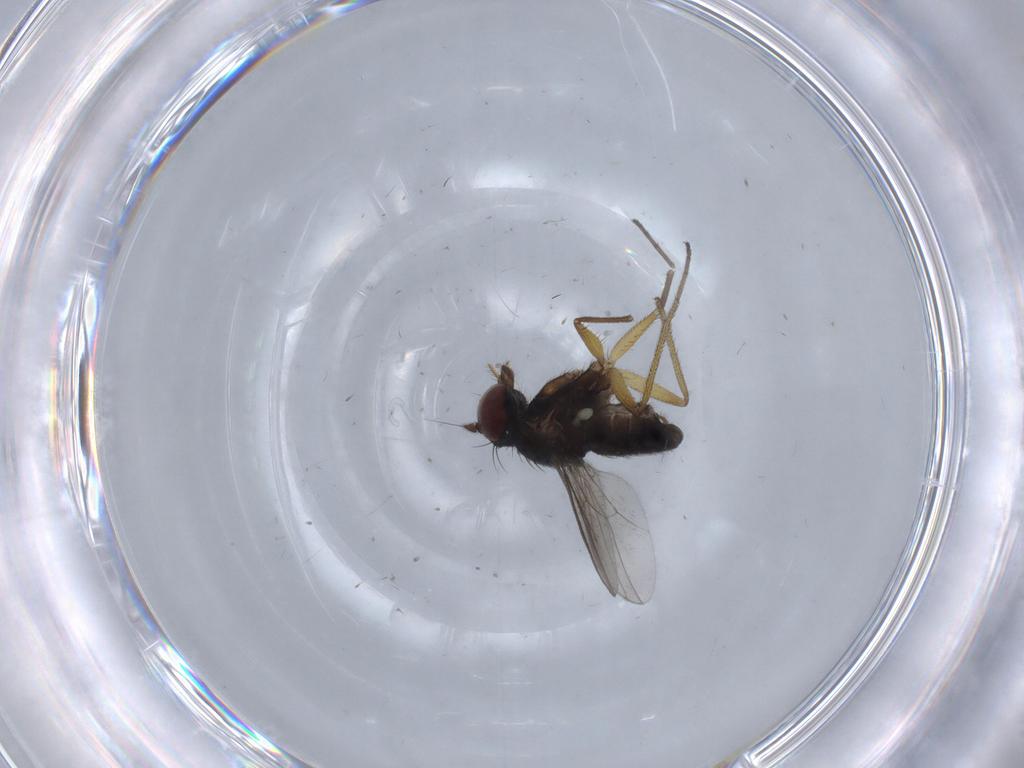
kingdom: Animalia
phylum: Arthropoda
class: Insecta
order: Diptera
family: Dolichopodidae
